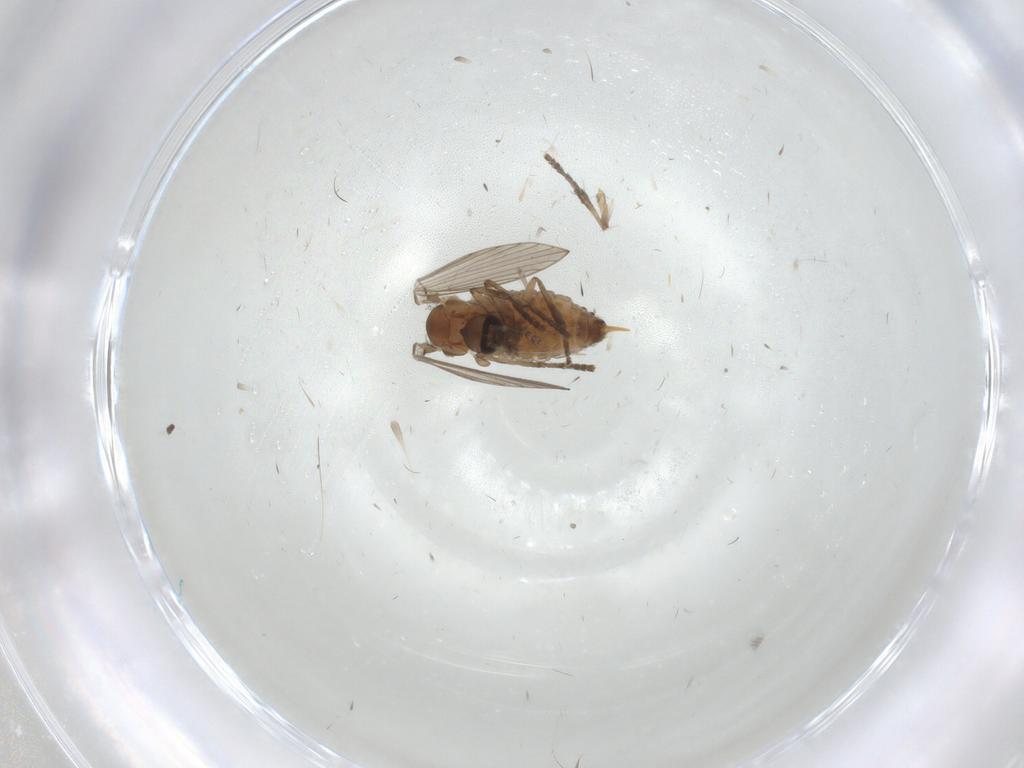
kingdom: Animalia
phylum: Arthropoda
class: Insecta
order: Diptera
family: Psychodidae
